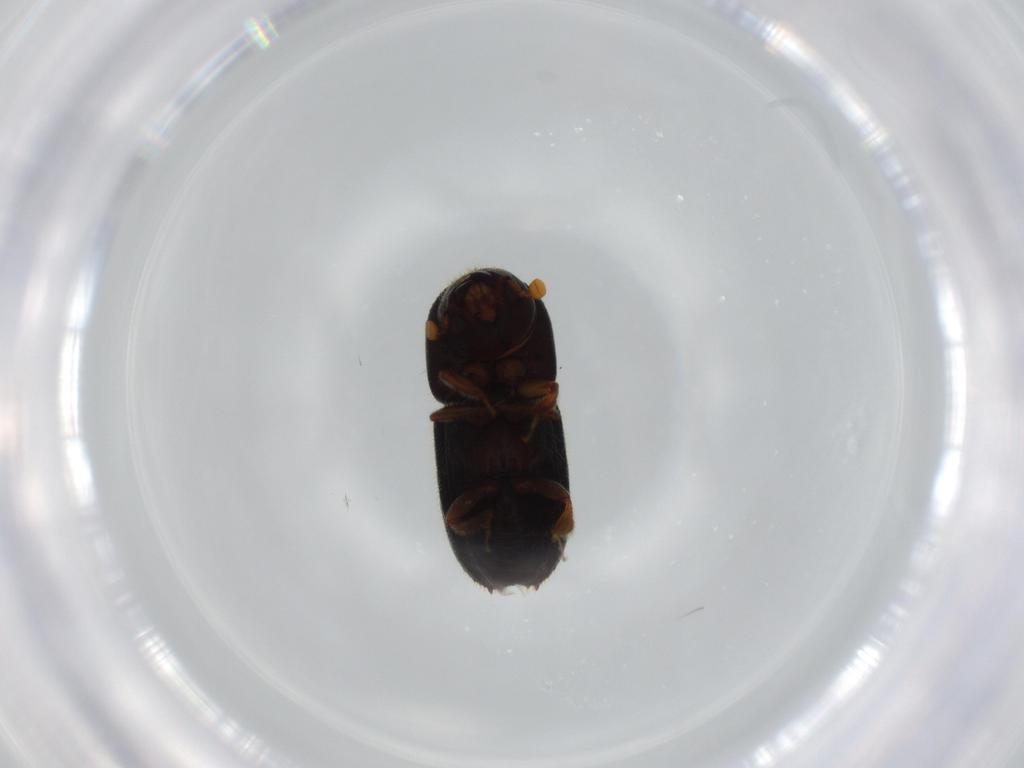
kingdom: Animalia
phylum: Arthropoda
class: Insecta
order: Coleoptera
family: Curculionidae
